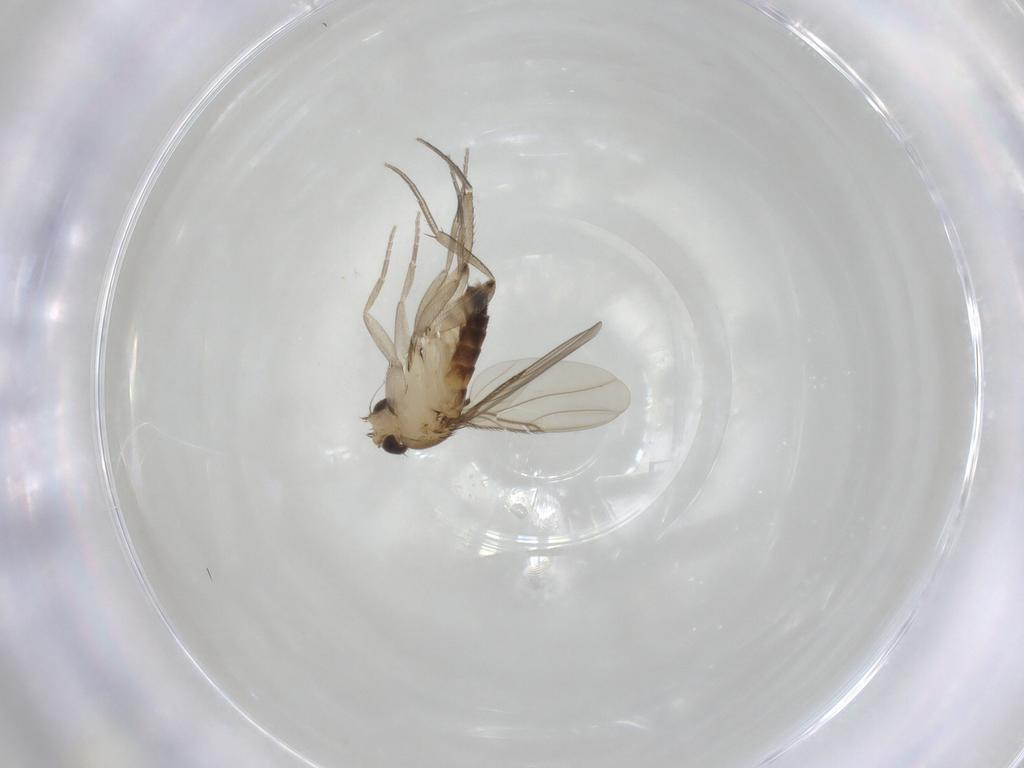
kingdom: Animalia
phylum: Arthropoda
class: Insecta
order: Diptera
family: Phoridae
